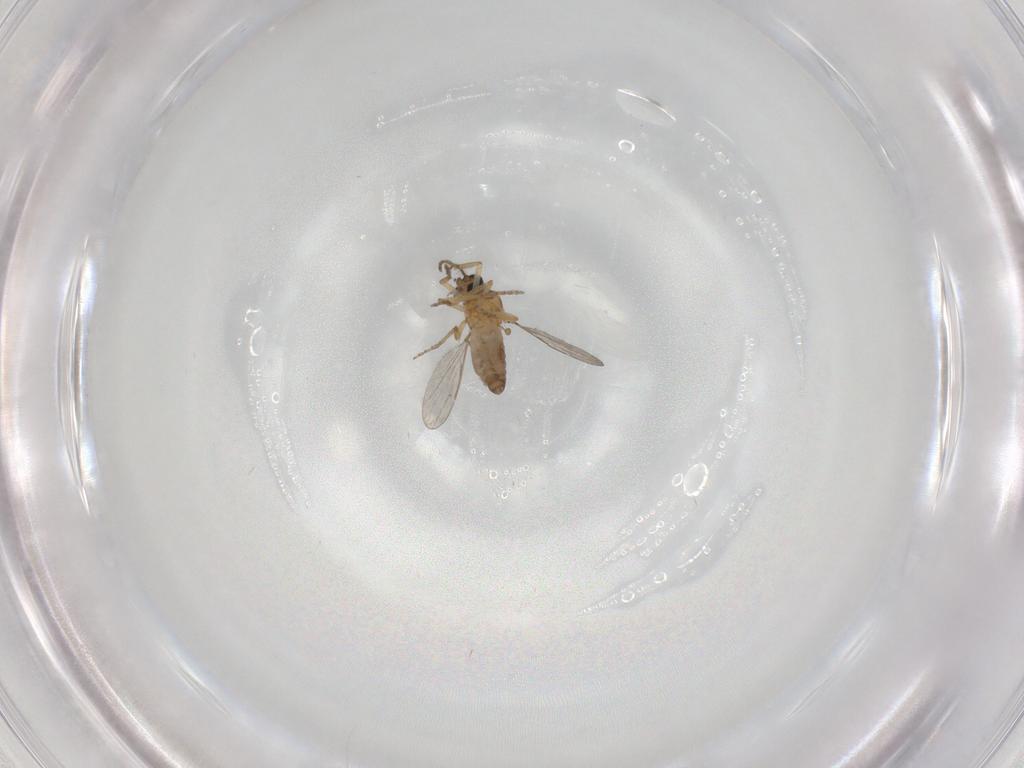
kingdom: Animalia
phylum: Arthropoda
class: Insecta
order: Diptera
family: Ceratopogonidae
